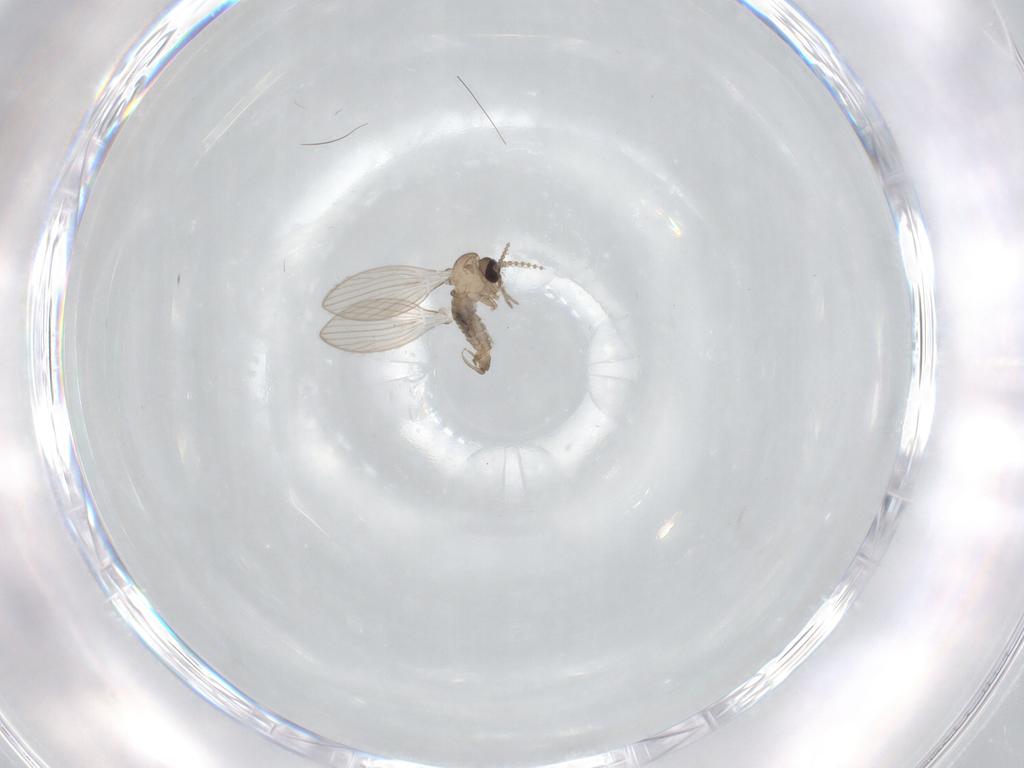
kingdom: Animalia
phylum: Arthropoda
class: Insecta
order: Diptera
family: Psychodidae
